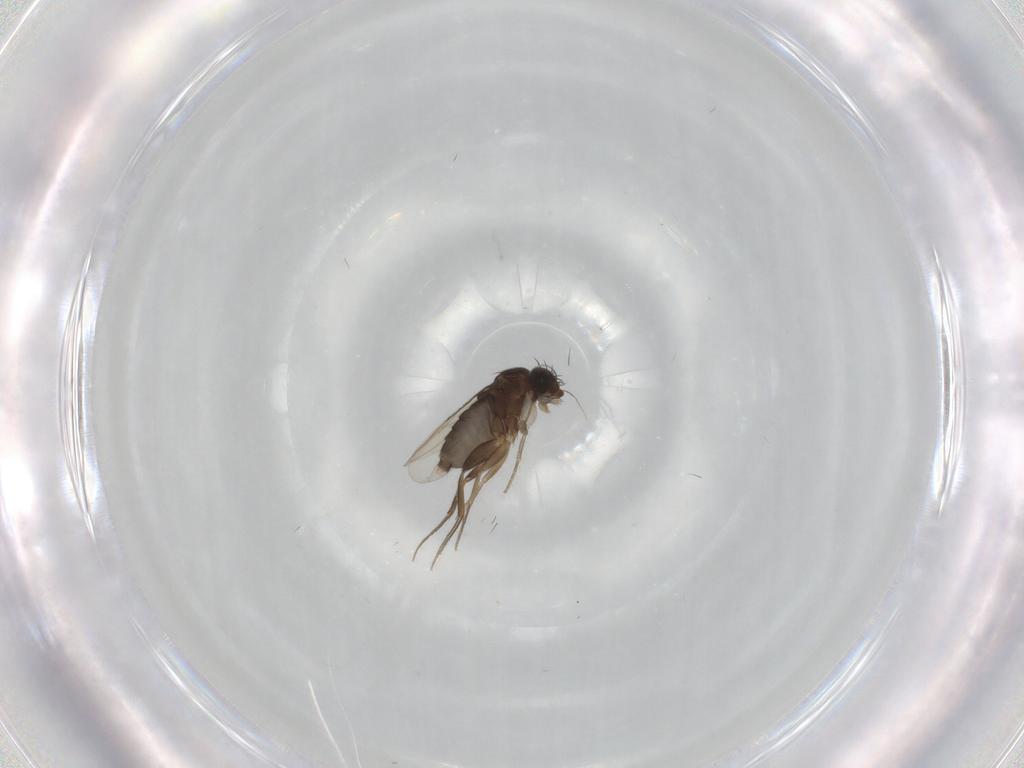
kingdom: Animalia
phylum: Arthropoda
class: Insecta
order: Diptera
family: Phoridae
